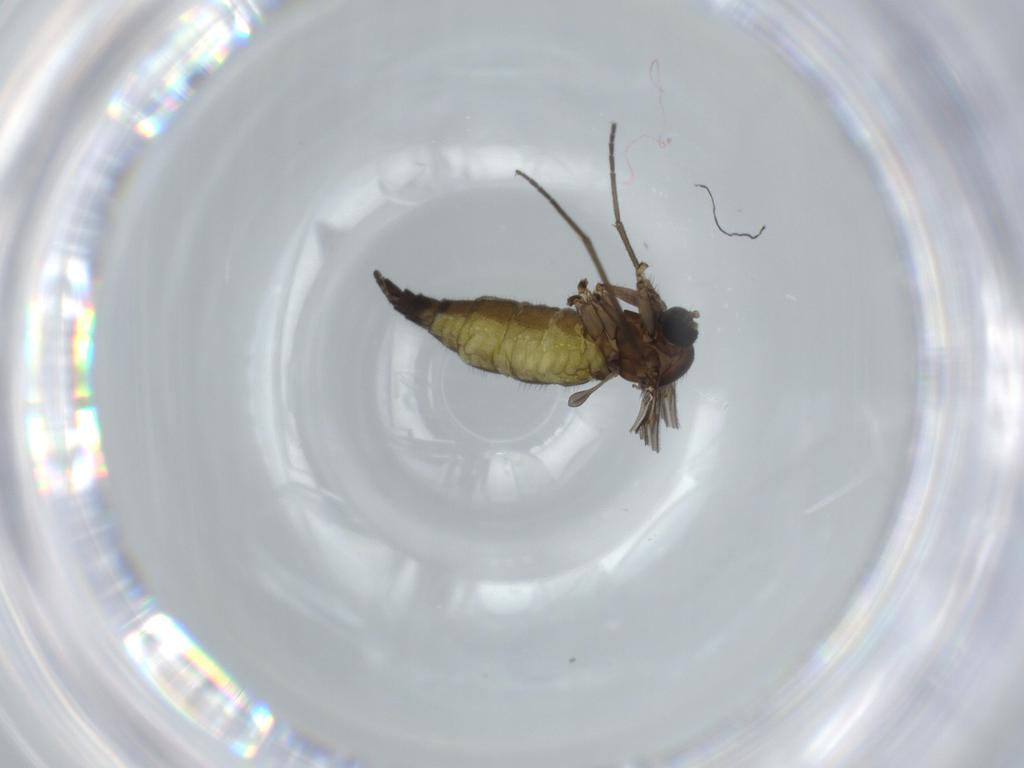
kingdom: Animalia
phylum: Arthropoda
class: Insecta
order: Diptera
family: Sciaridae
